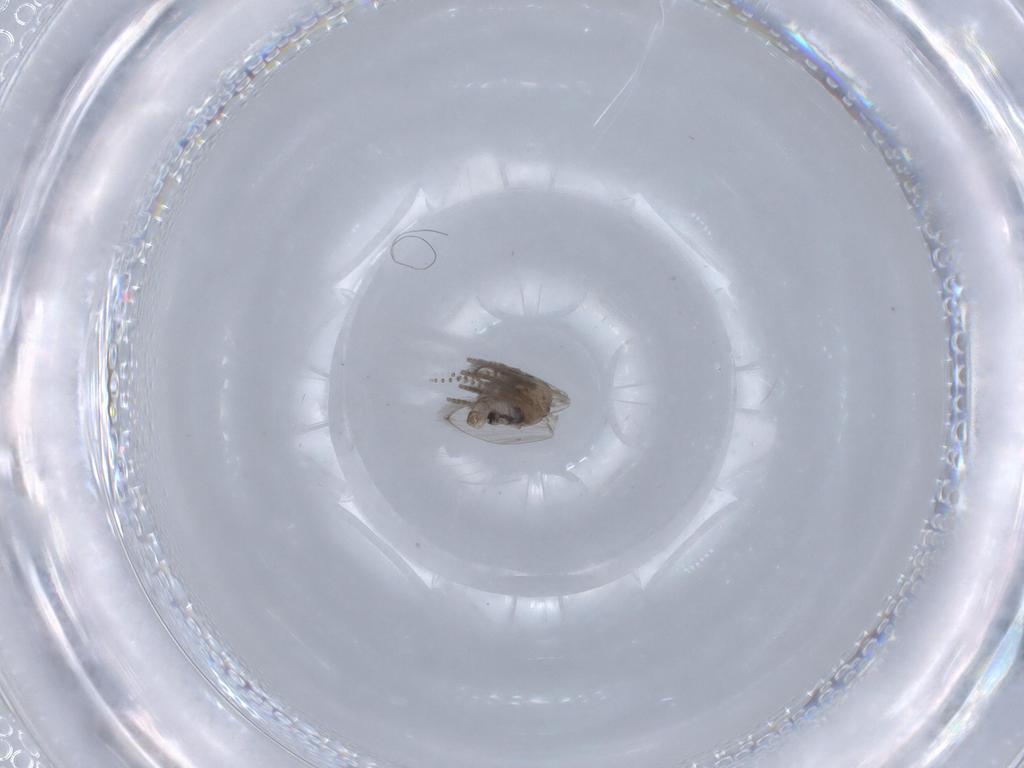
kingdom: Animalia
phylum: Arthropoda
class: Insecta
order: Diptera
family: Psychodidae
